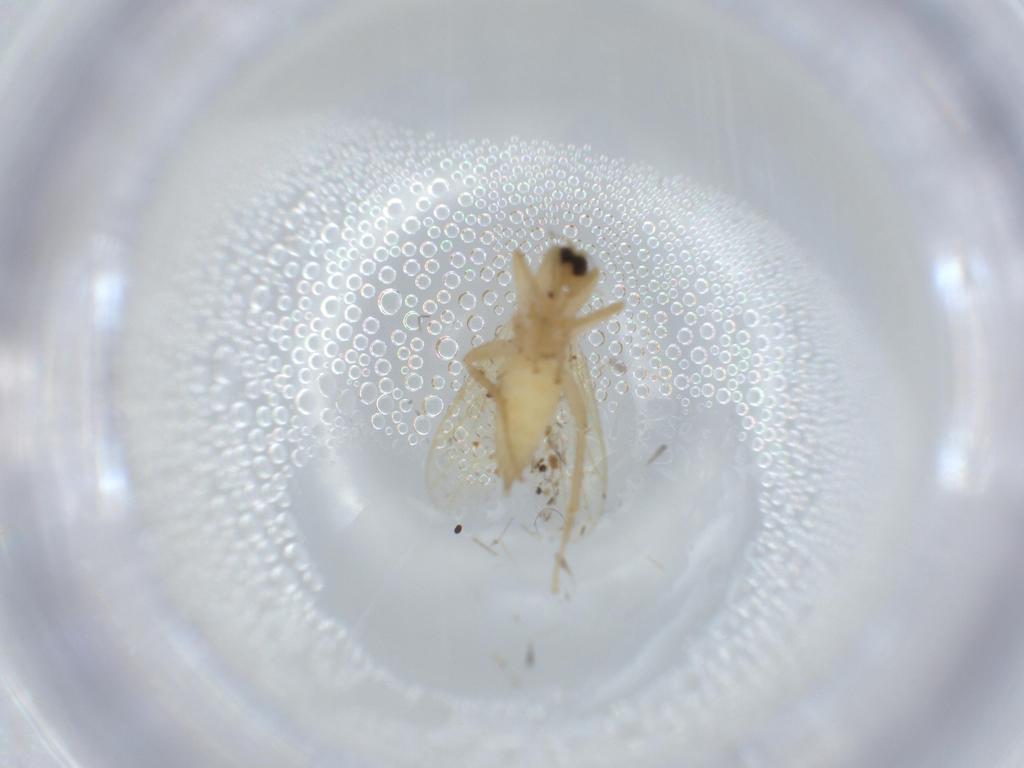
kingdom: Animalia
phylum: Arthropoda
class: Insecta
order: Diptera
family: Hybotidae
